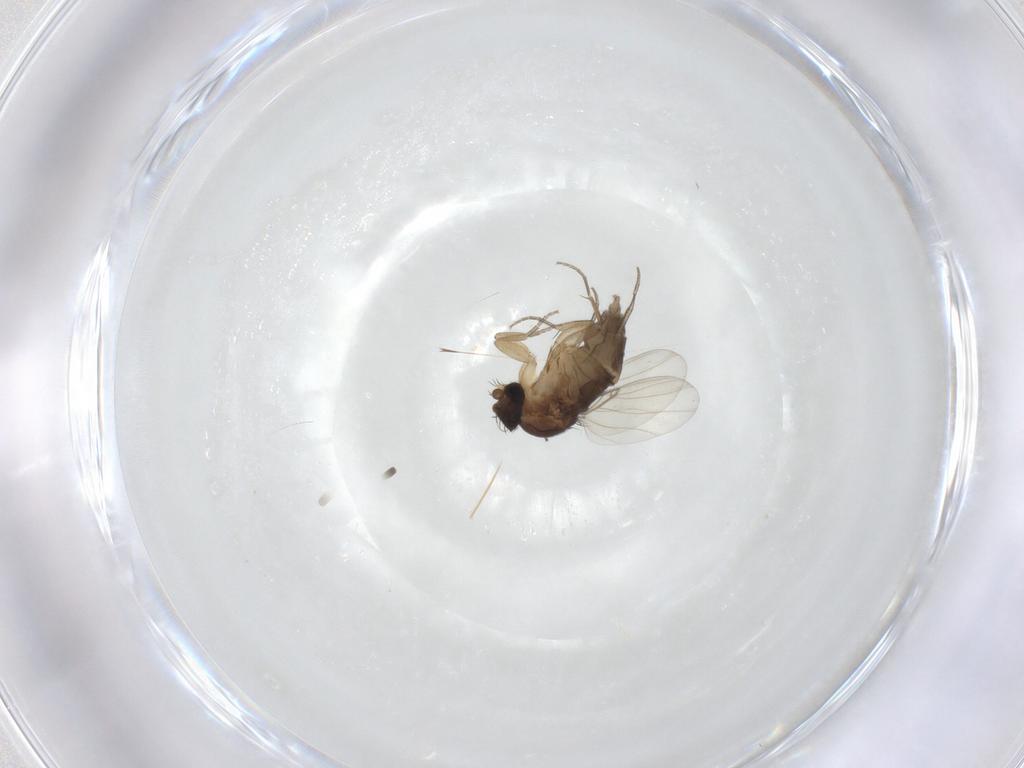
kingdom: Animalia
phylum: Arthropoda
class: Insecta
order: Diptera
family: Phoridae
